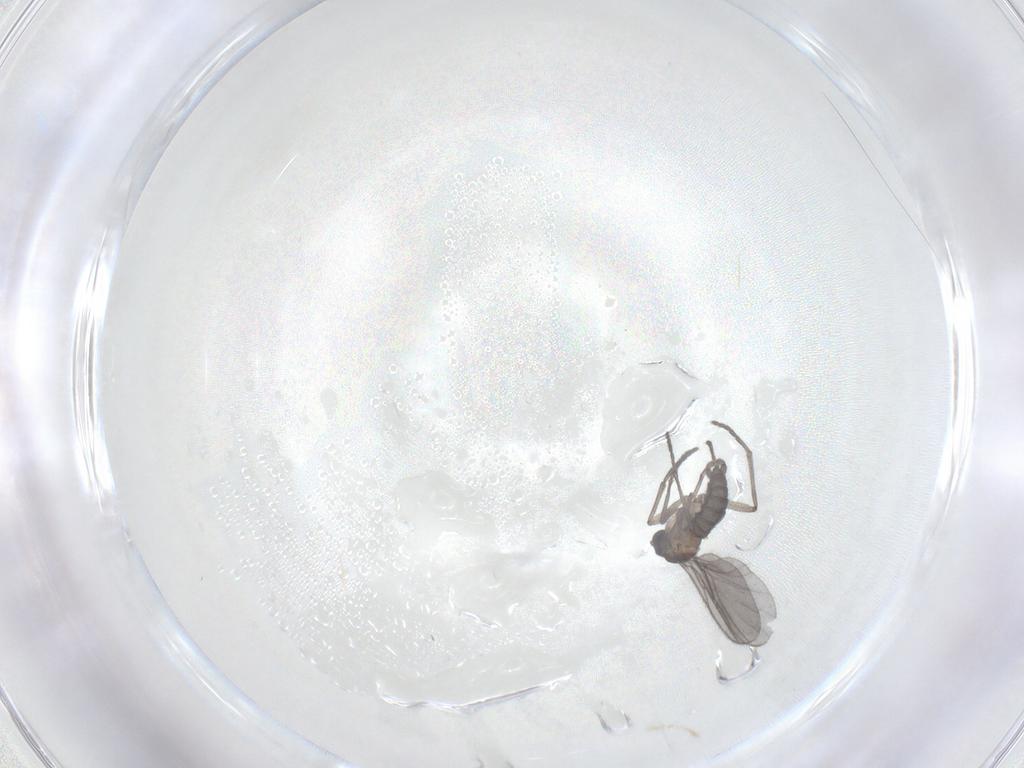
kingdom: Animalia
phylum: Arthropoda
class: Insecta
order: Diptera
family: Sciaridae
